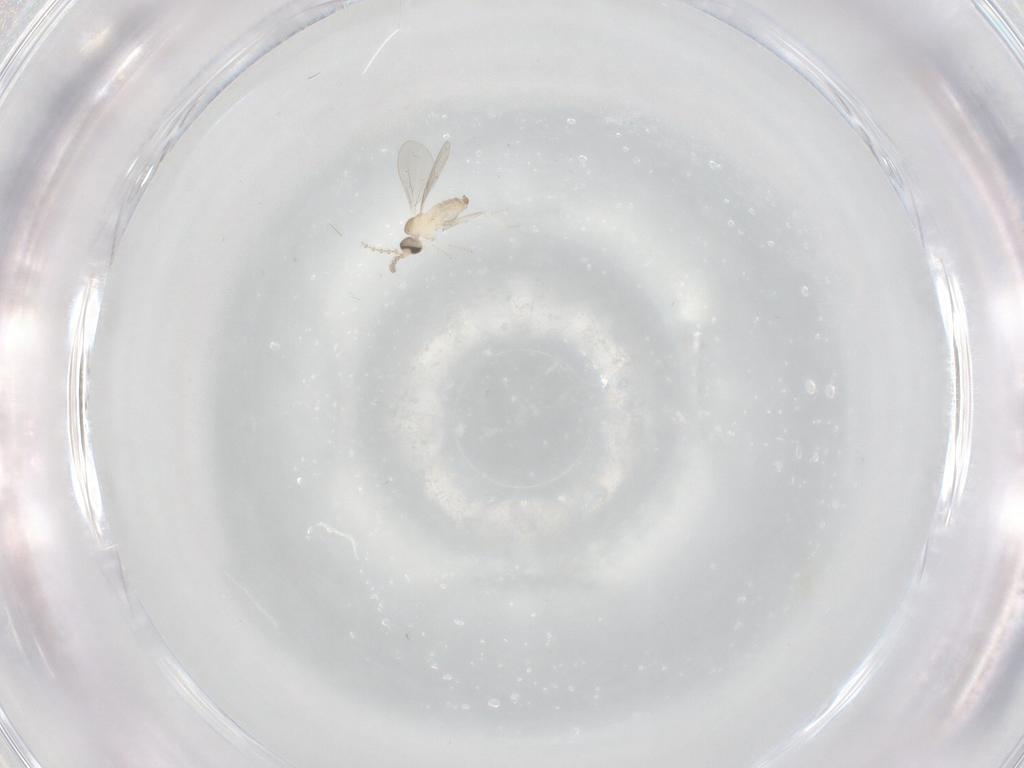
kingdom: Animalia
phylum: Arthropoda
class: Insecta
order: Diptera
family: Cecidomyiidae
